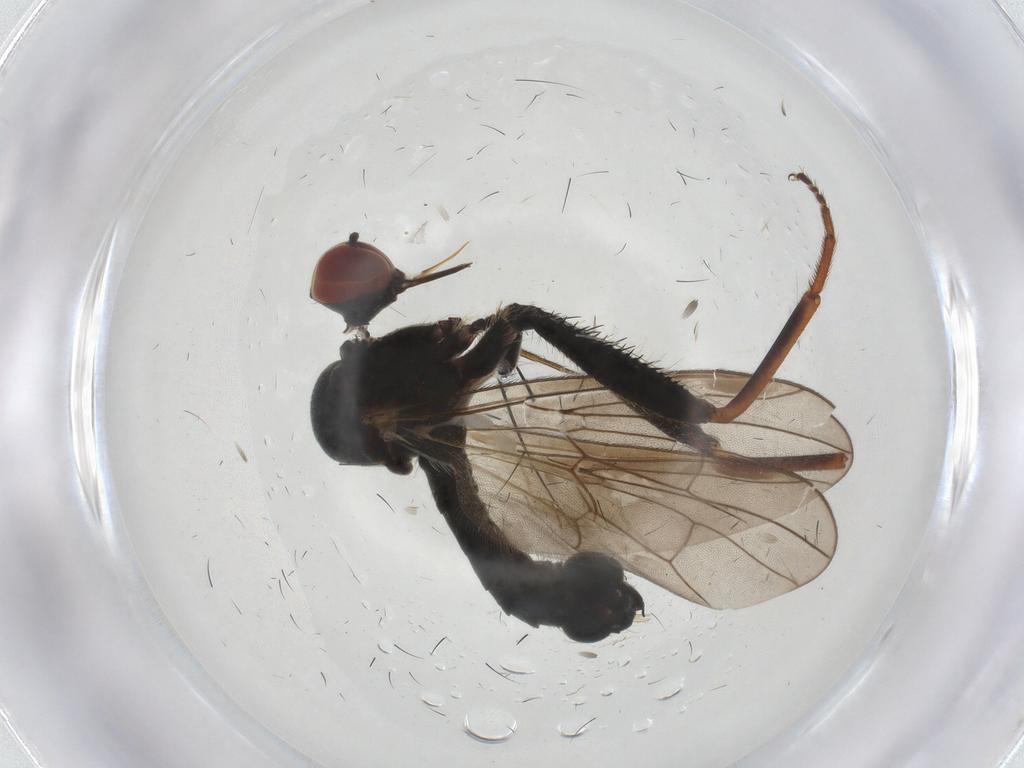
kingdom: Animalia
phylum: Arthropoda
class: Insecta
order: Diptera
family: Sepsidae
